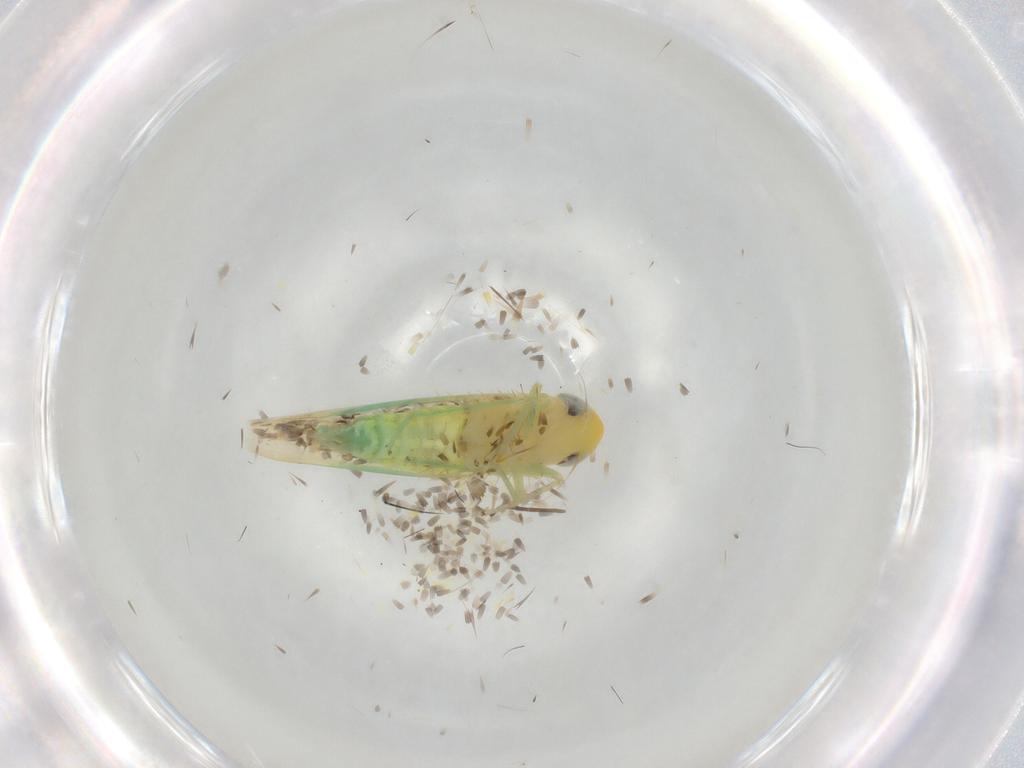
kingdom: Animalia
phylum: Arthropoda
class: Insecta
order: Hemiptera
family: Cicadellidae
